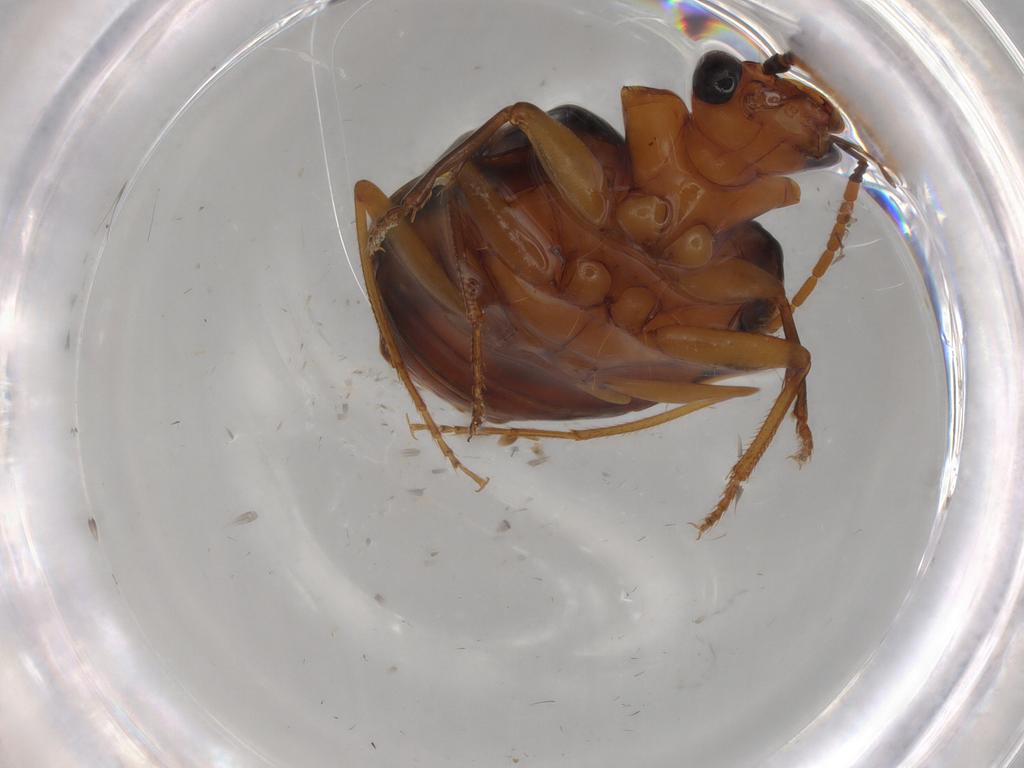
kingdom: Animalia
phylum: Arthropoda
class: Insecta
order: Coleoptera
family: Carabidae
